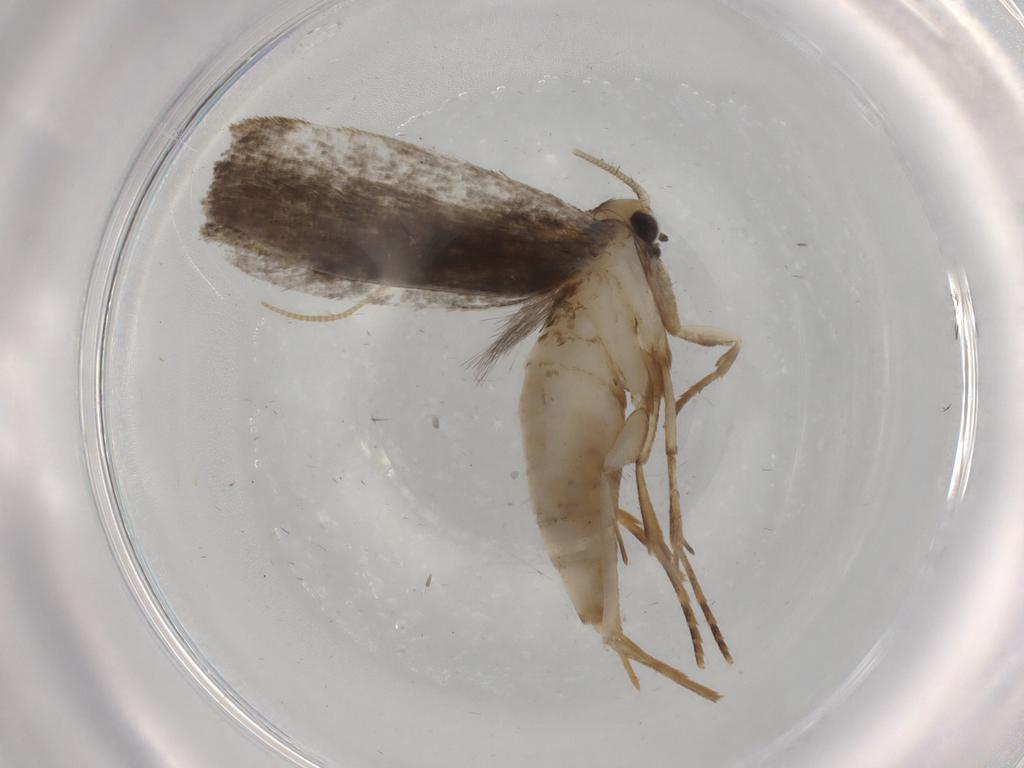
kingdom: Animalia
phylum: Arthropoda
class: Insecta
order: Lepidoptera
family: Tineidae
